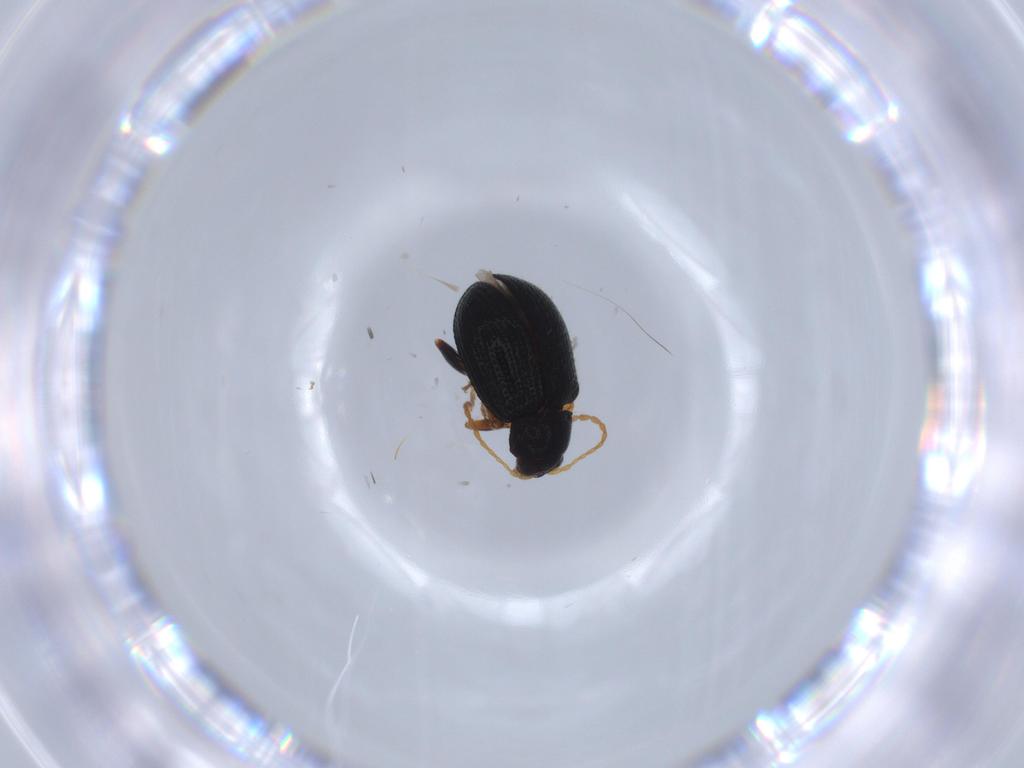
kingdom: Animalia
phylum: Arthropoda
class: Insecta
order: Coleoptera
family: Chrysomelidae
